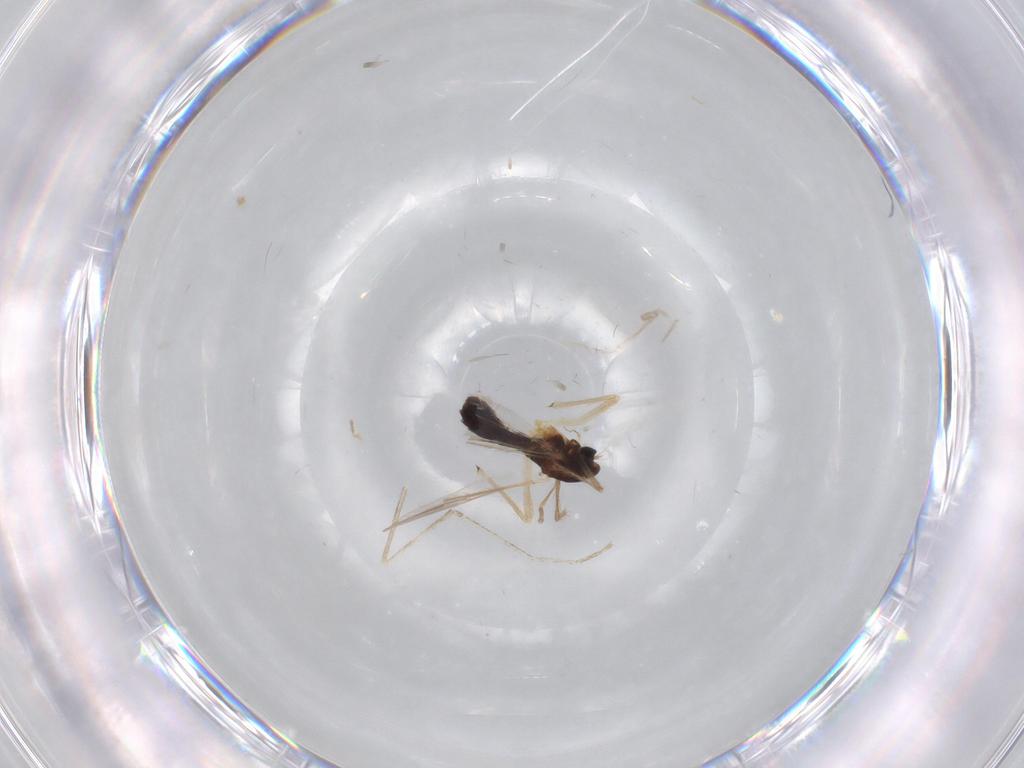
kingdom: Animalia
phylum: Arthropoda
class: Insecta
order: Diptera
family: Chironomidae
